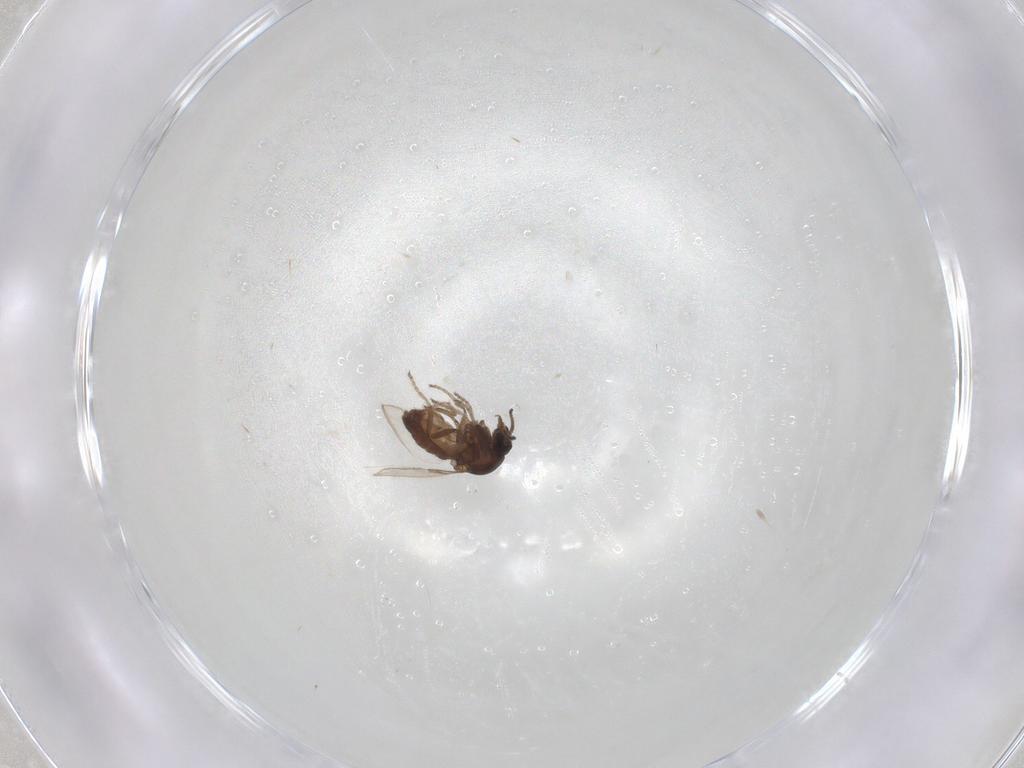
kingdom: Animalia
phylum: Arthropoda
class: Insecta
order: Diptera
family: Ceratopogonidae
